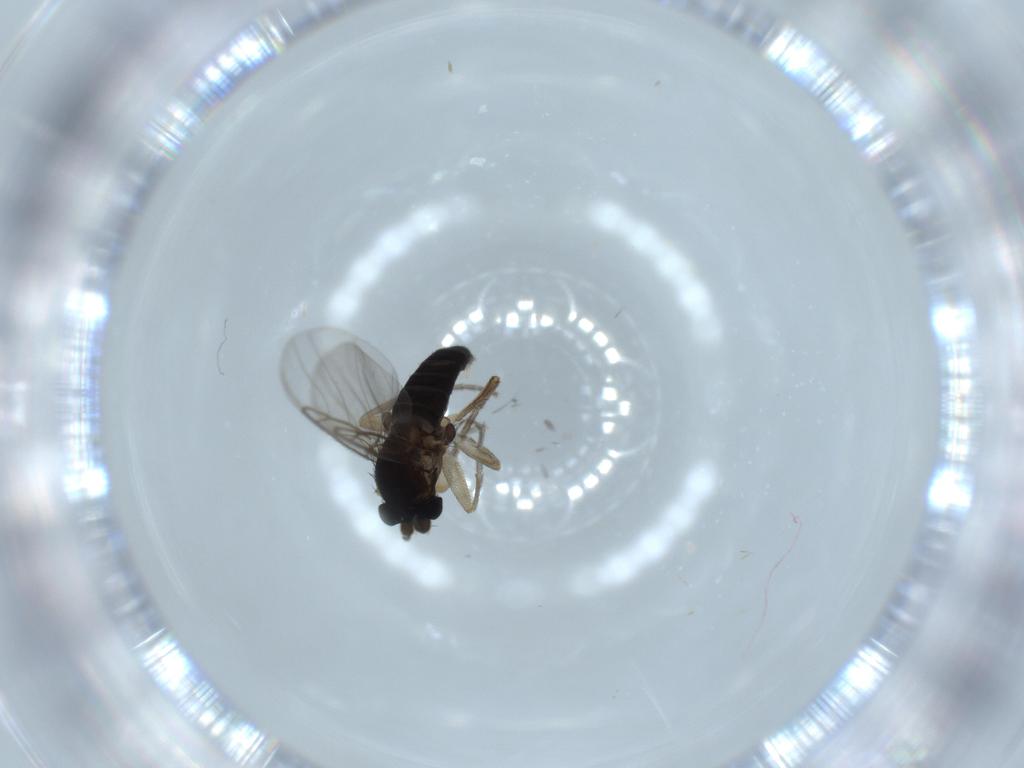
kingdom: Animalia
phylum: Arthropoda
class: Insecta
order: Diptera
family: Phoridae
